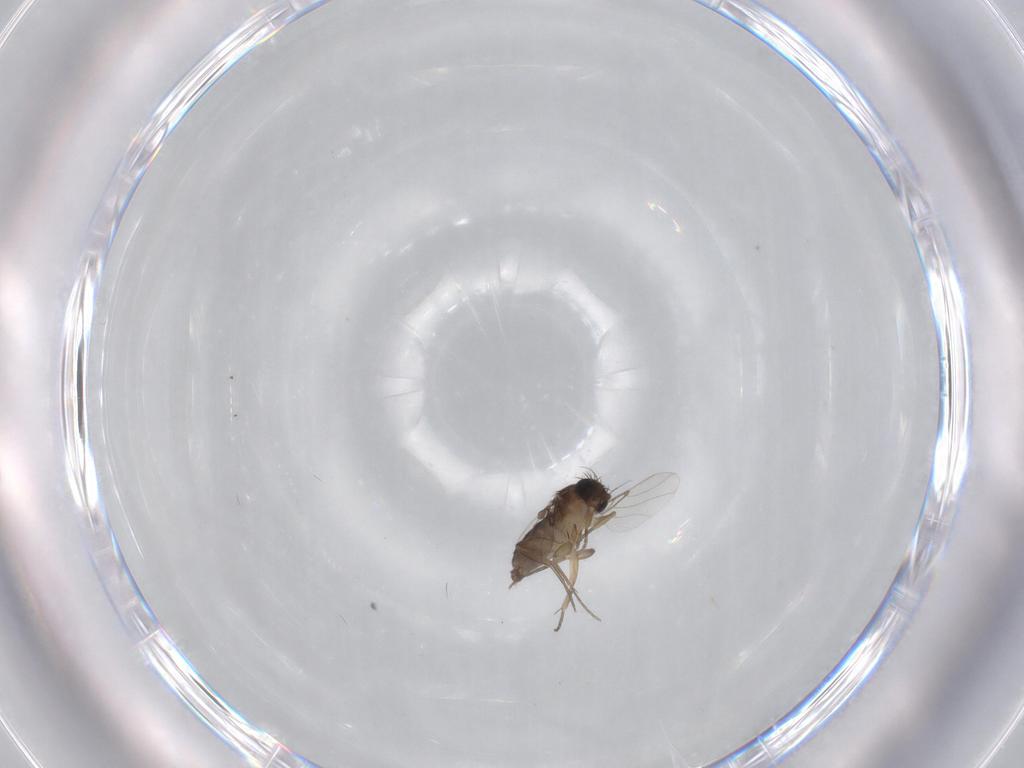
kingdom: Animalia
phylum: Arthropoda
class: Insecta
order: Diptera
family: Phoridae
